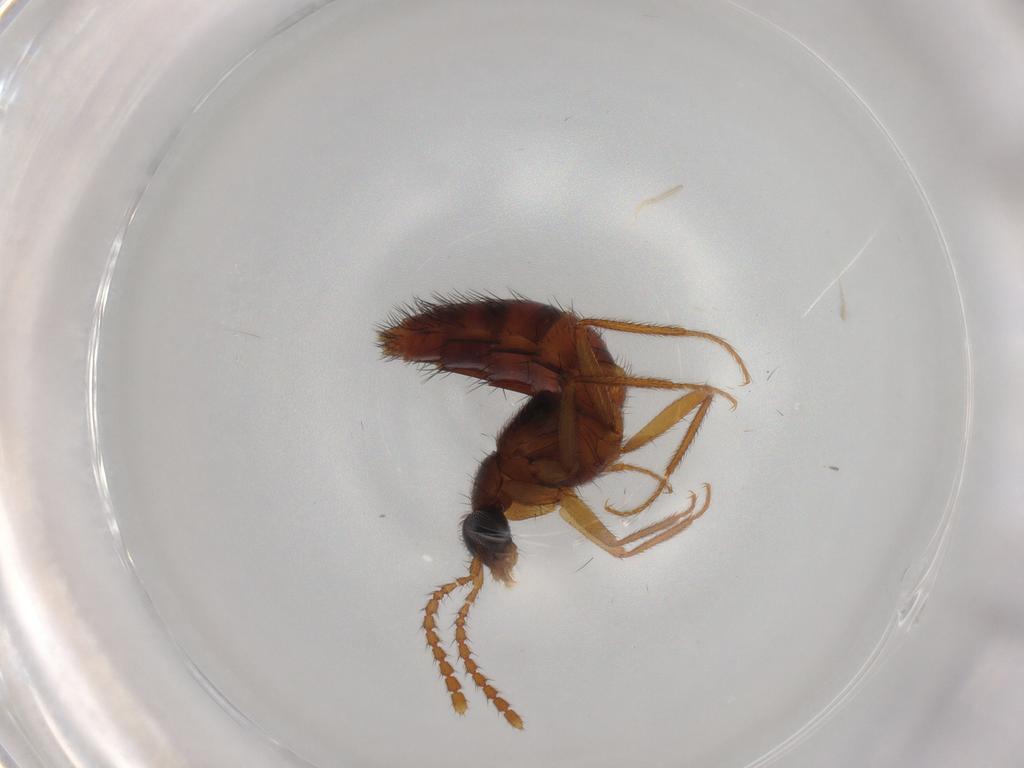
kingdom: Animalia
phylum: Arthropoda
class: Insecta
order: Coleoptera
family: Staphylinidae
